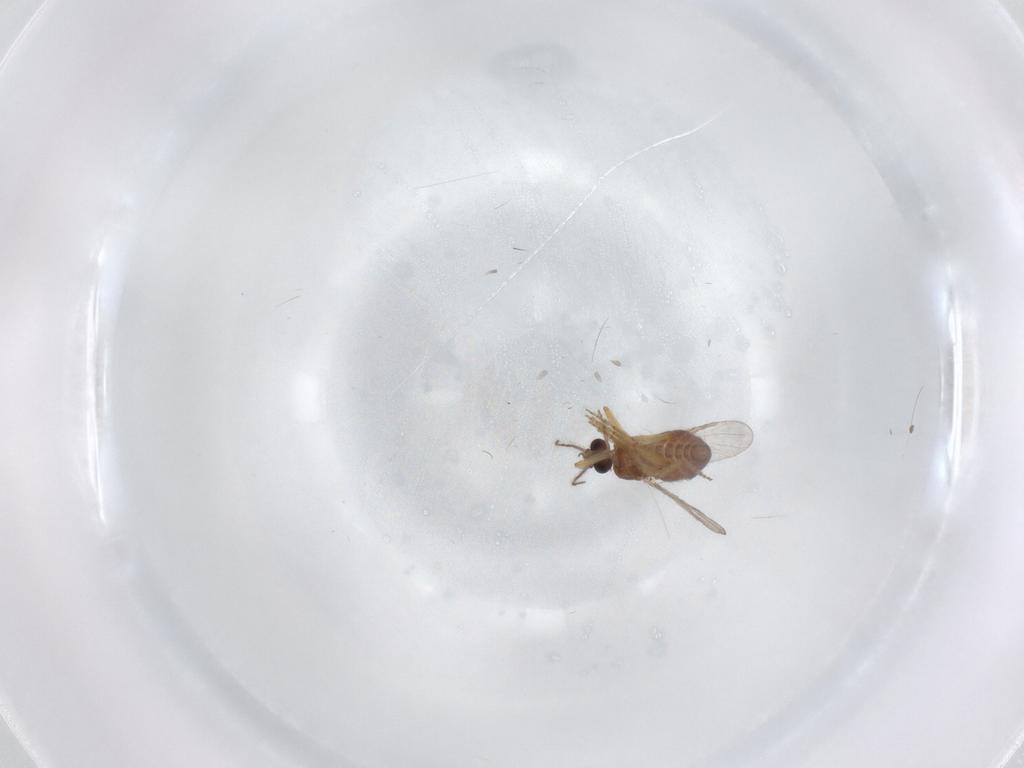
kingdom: Animalia
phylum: Arthropoda
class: Insecta
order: Diptera
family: Ceratopogonidae
